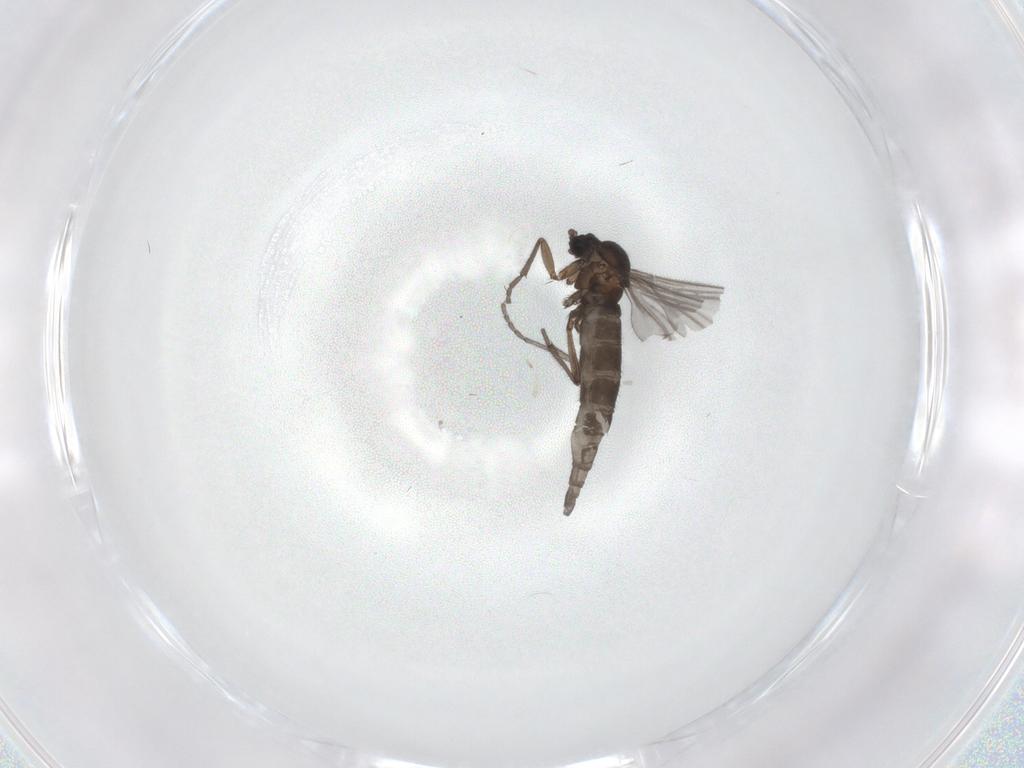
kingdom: Animalia
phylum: Arthropoda
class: Insecta
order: Diptera
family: Sciaridae
